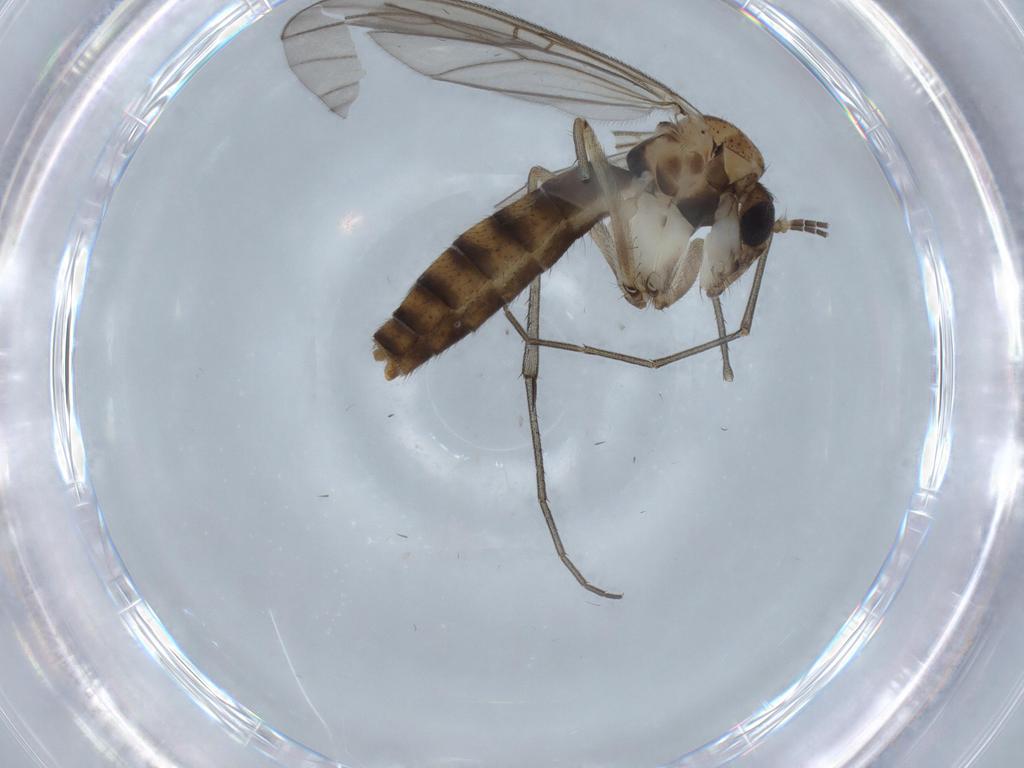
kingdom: Animalia
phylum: Arthropoda
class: Insecta
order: Diptera
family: Mycetophilidae
